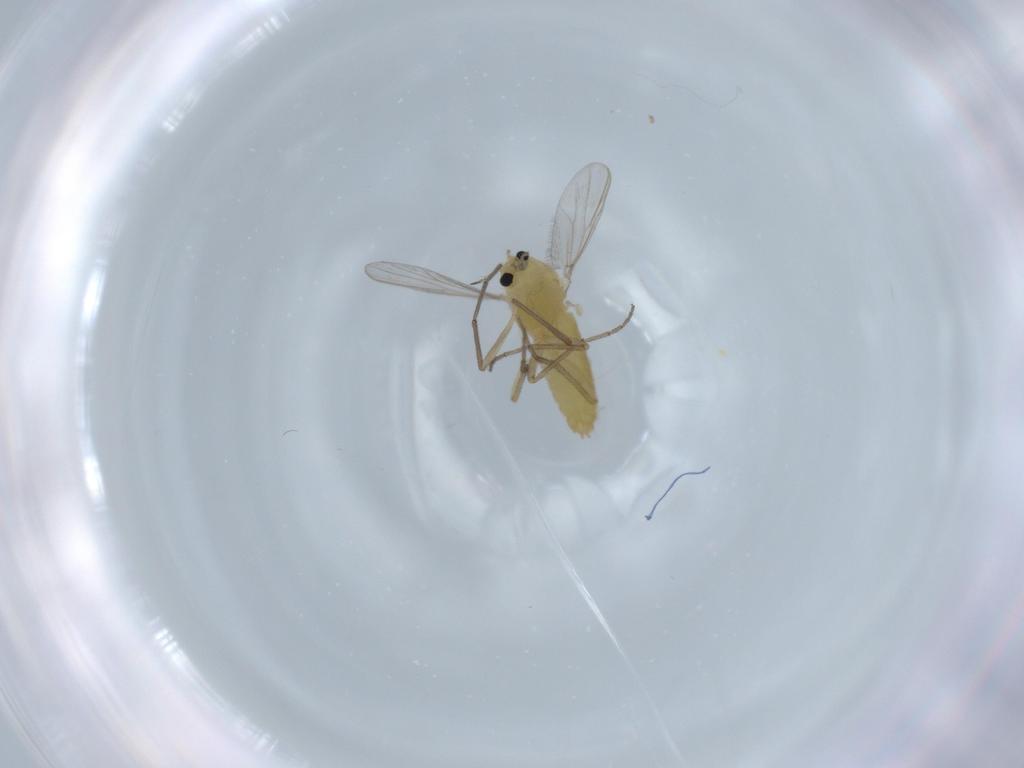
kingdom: Animalia
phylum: Arthropoda
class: Insecta
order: Diptera
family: Chironomidae
